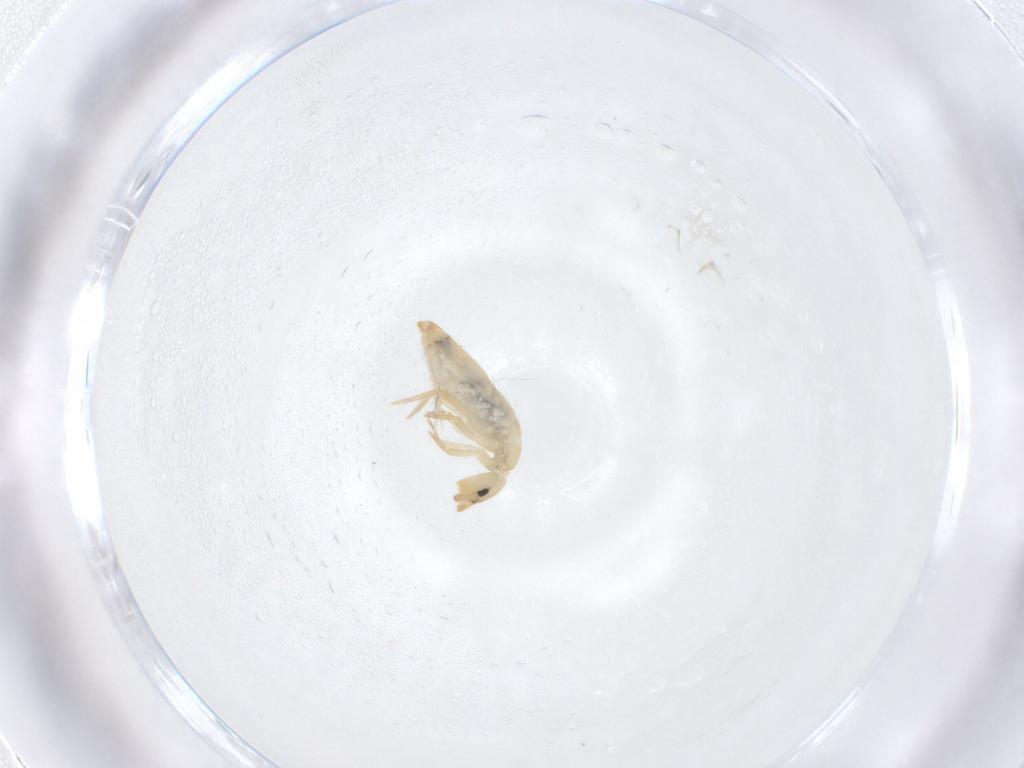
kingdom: Animalia
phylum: Arthropoda
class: Collembola
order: Entomobryomorpha
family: Entomobryidae
